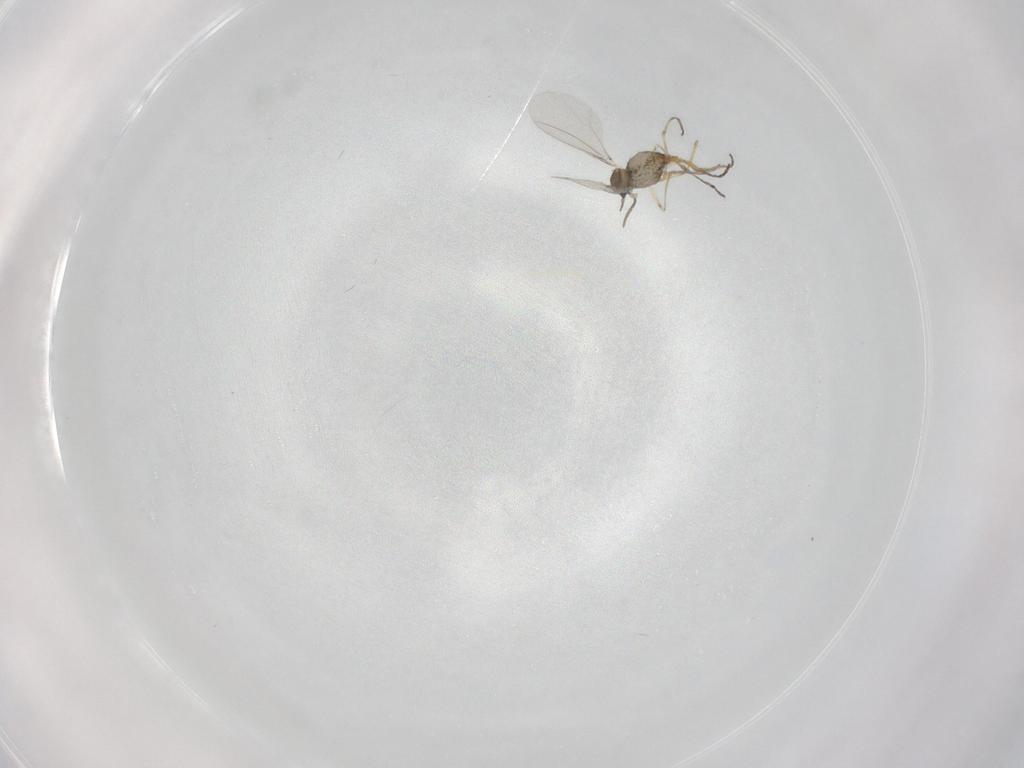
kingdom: Animalia
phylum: Arthropoda
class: Insecta
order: Diptera
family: Cecidomyiidae
